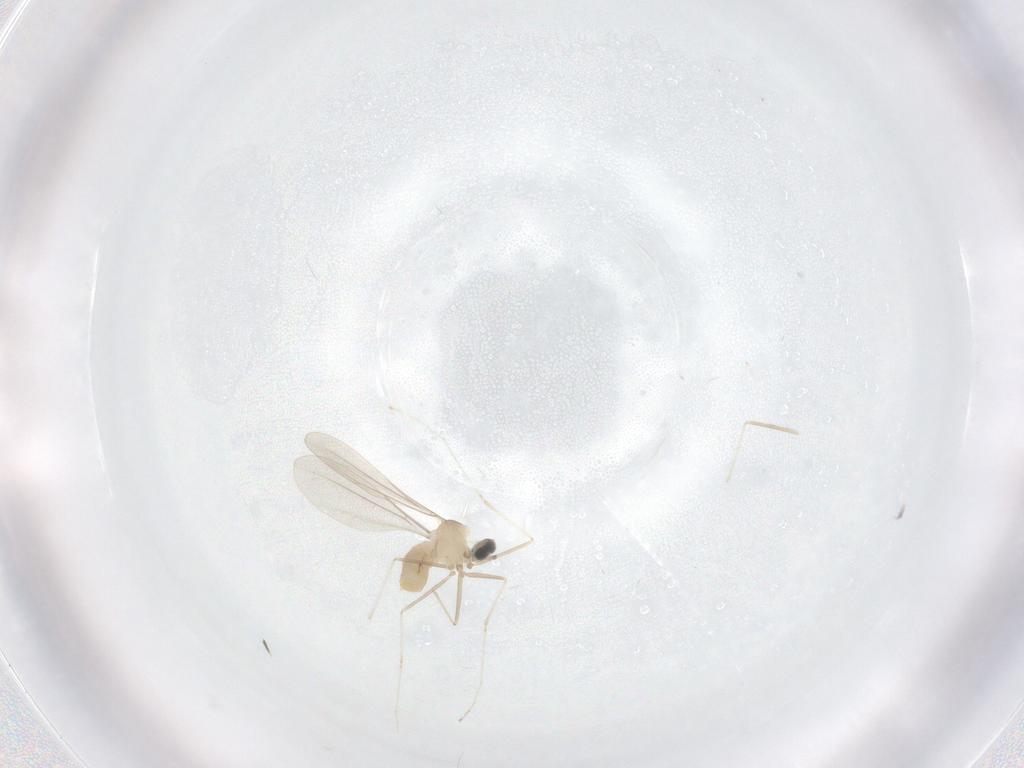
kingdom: Animalia
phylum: Arthropoda
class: Insecta
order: Diptera
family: Cecidomyiidae
